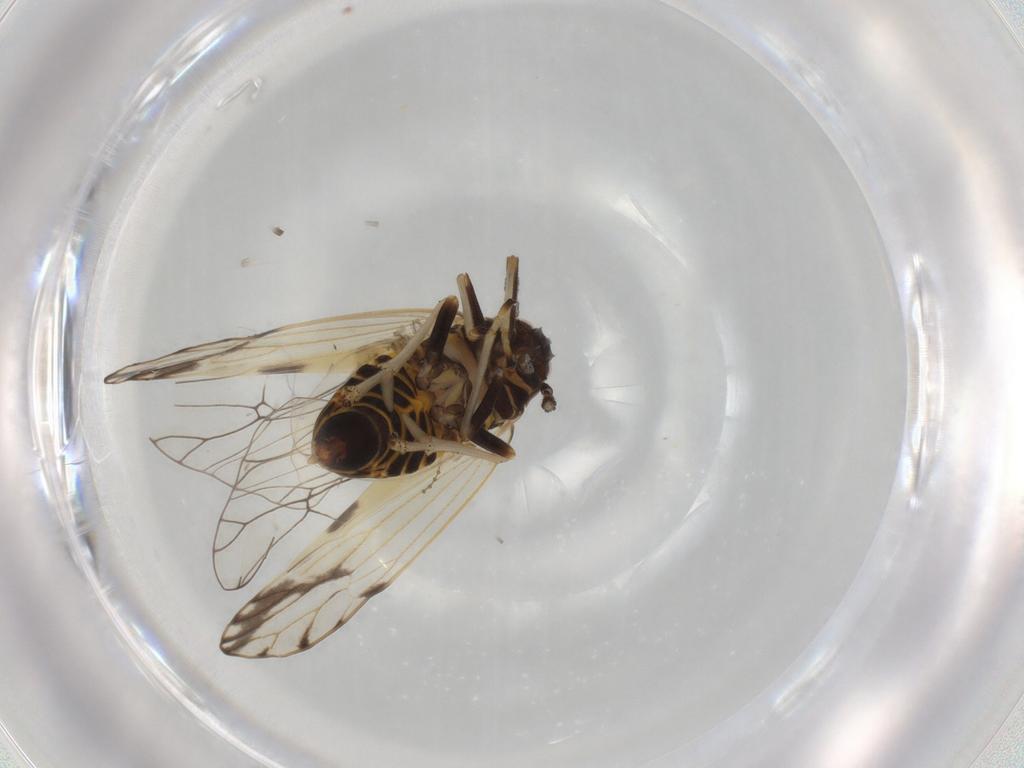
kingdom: Animalia
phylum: Arthropoda
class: Insecta
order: Hemiptera
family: Delphacidae
